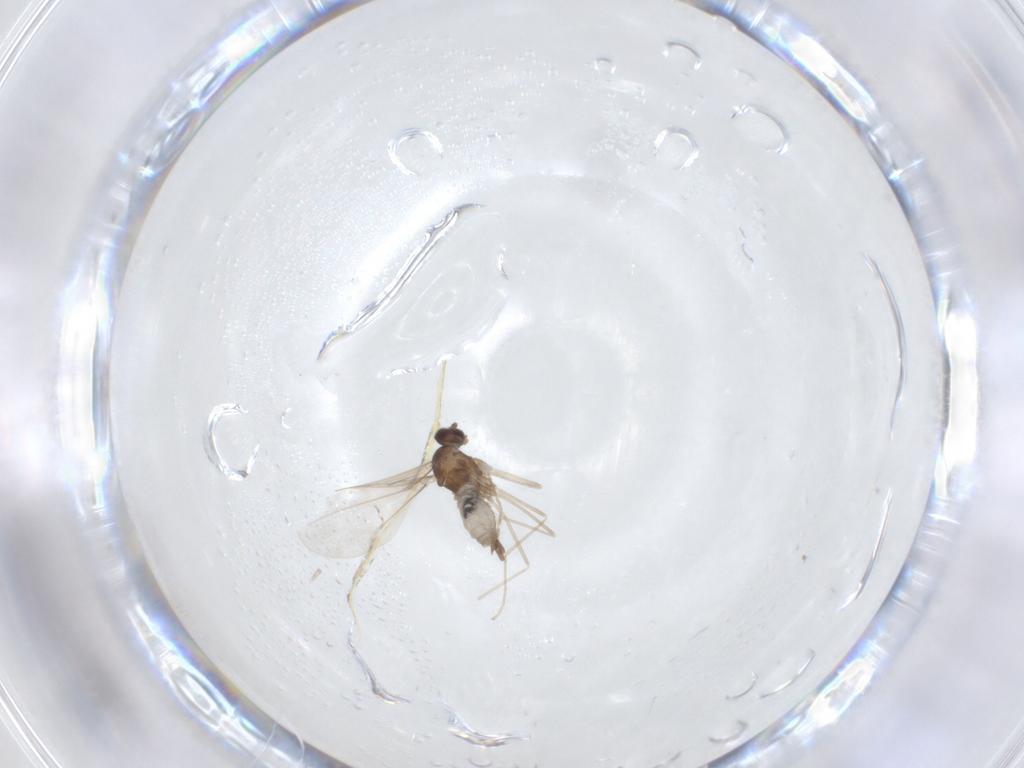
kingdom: Animalia
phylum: Arthropoda
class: Insecta
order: Diptera
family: Cecidomyiidae
